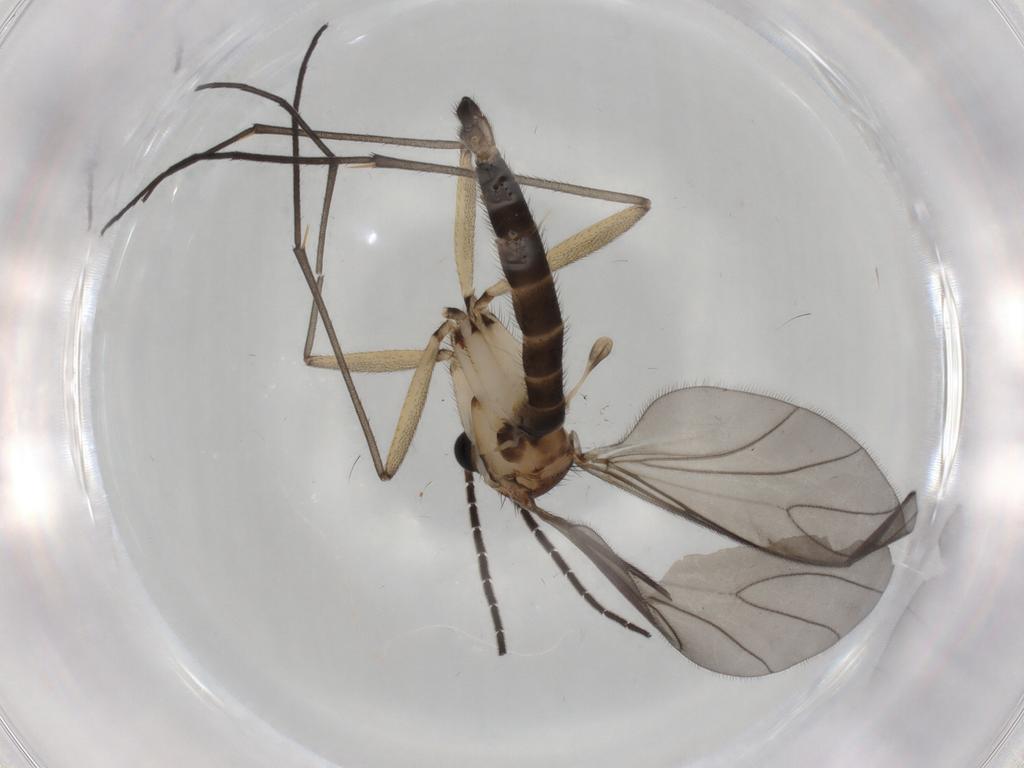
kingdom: Animalia
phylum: Arthropoda
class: Insecta
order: Diptera
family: Sciaridae
